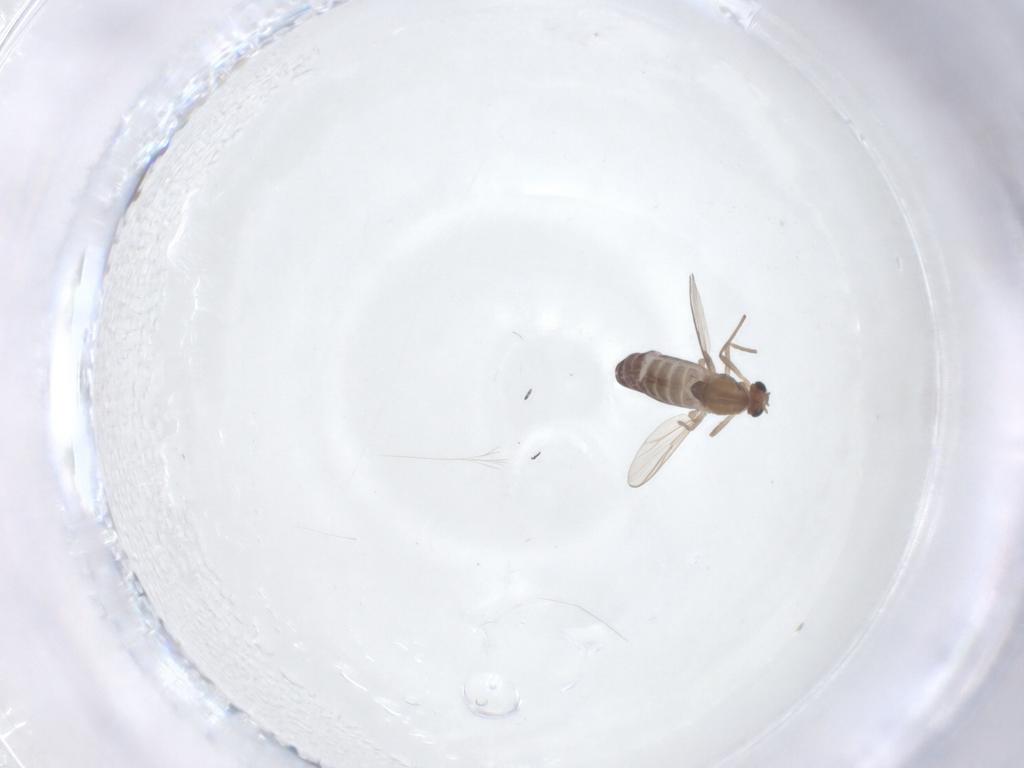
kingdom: Animalia
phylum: Arthropoda
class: Insecta
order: Diptera
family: Chironomidae
